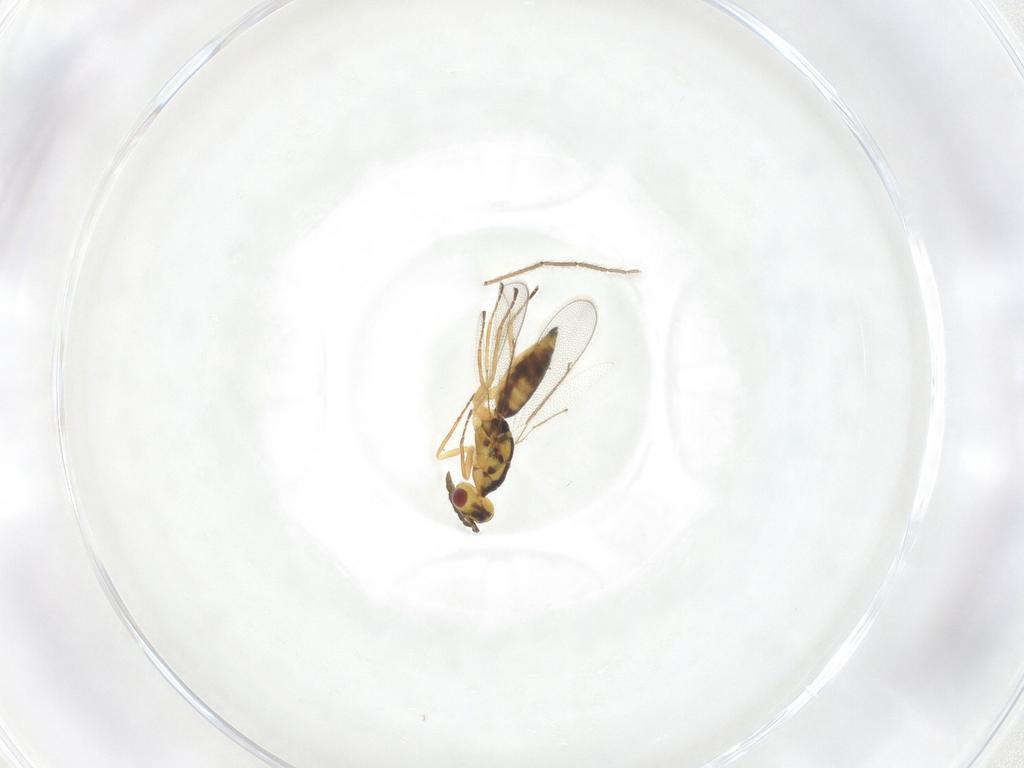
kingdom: Animalia
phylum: Arthropoda
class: Insecta
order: Hymenoptera
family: Eulophidae
